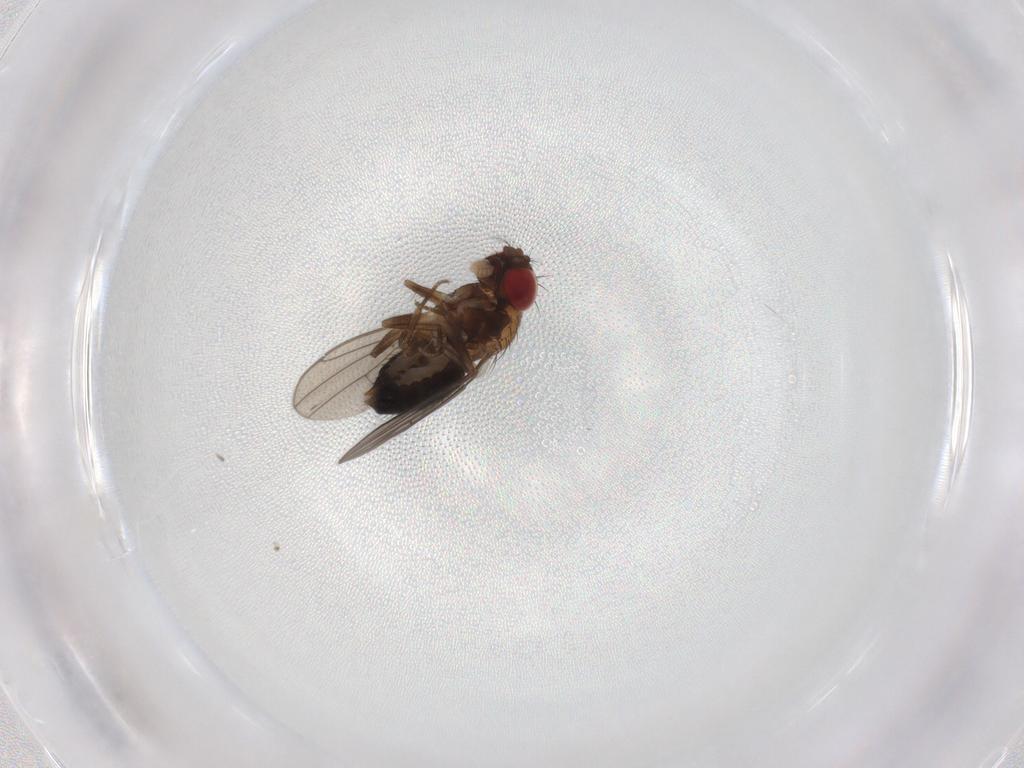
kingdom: Animalia
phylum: Arthropoda
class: Insecta
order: Diptera
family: Drosophilidae
